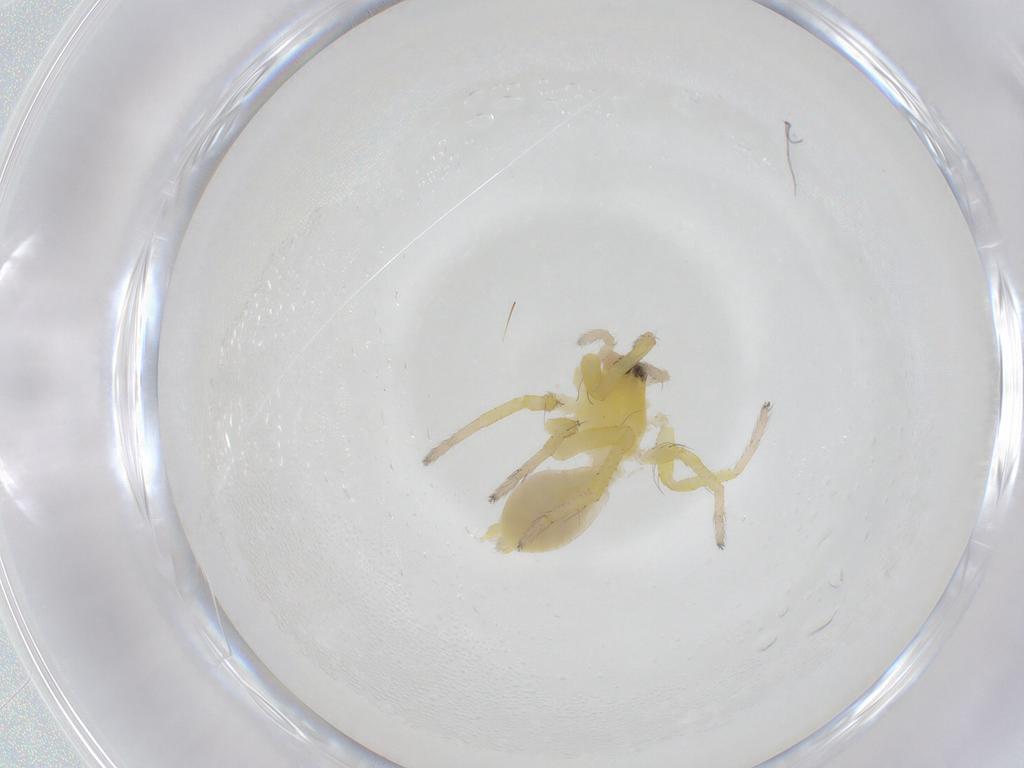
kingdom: Animalia
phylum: Arthropoda
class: Arachnida
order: Araneae
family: Anyphaenidae
